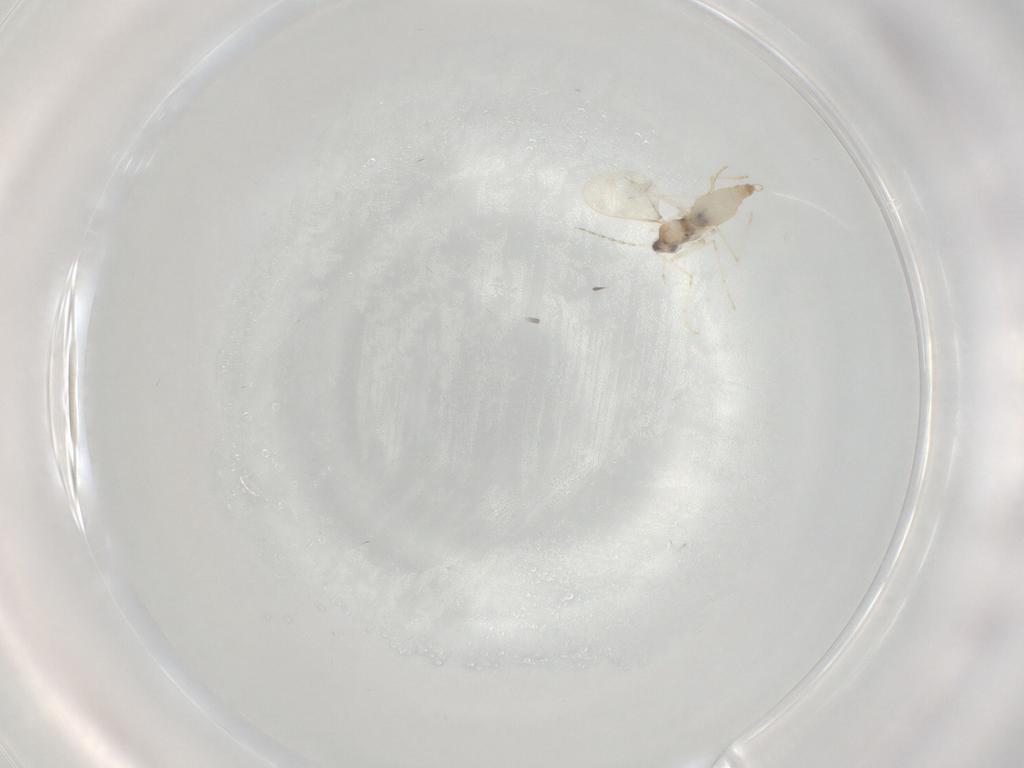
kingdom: Animalia
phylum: Arthropoda
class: Insecta
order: Diptera
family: Cecidomyiidae
